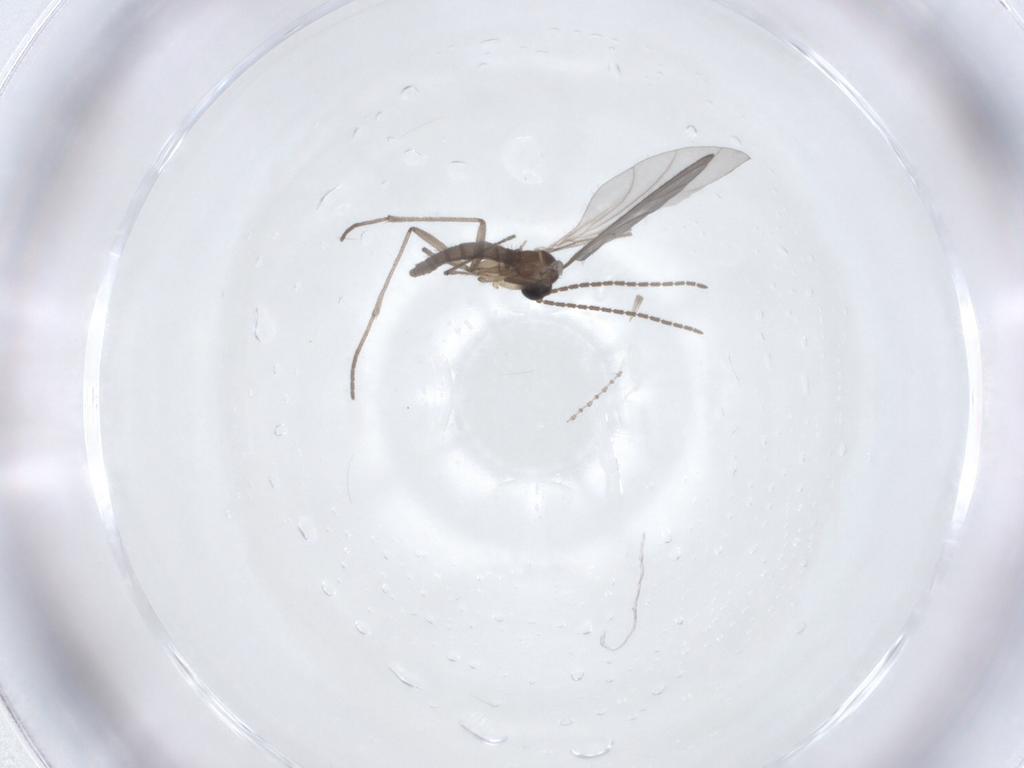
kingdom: Animalia
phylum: Arthropoda
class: Insecta
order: Diptera
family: Sciaridae
